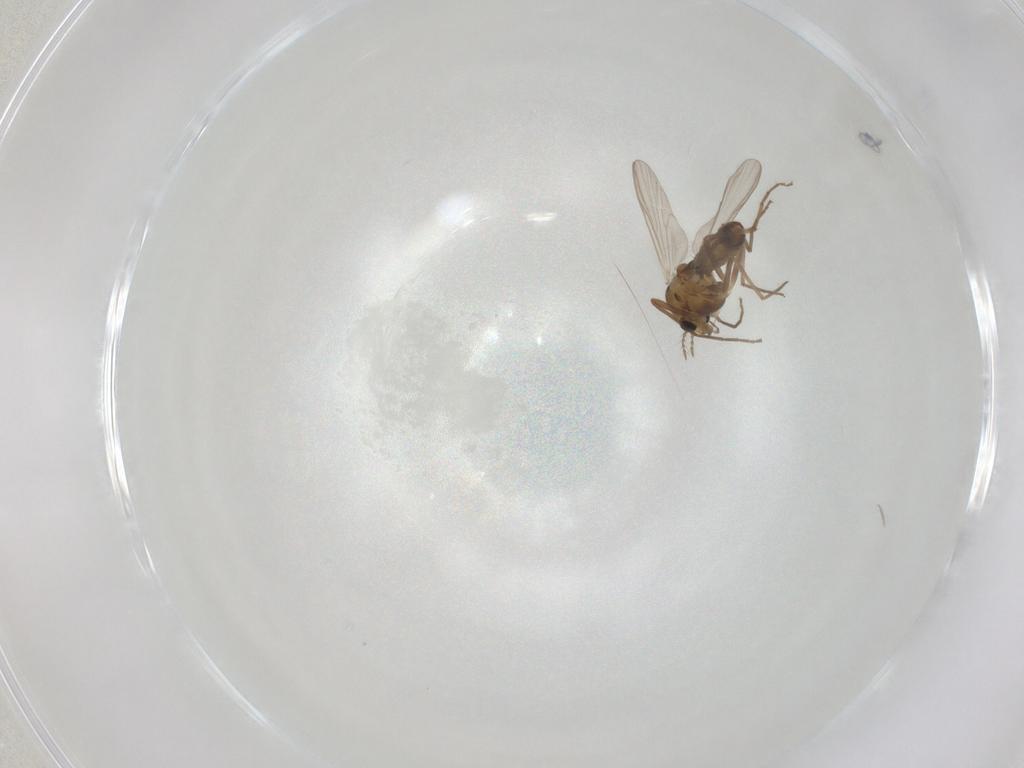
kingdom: Animalia
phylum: Arthropoda
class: Insecta
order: Diptera
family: Chironomidae
